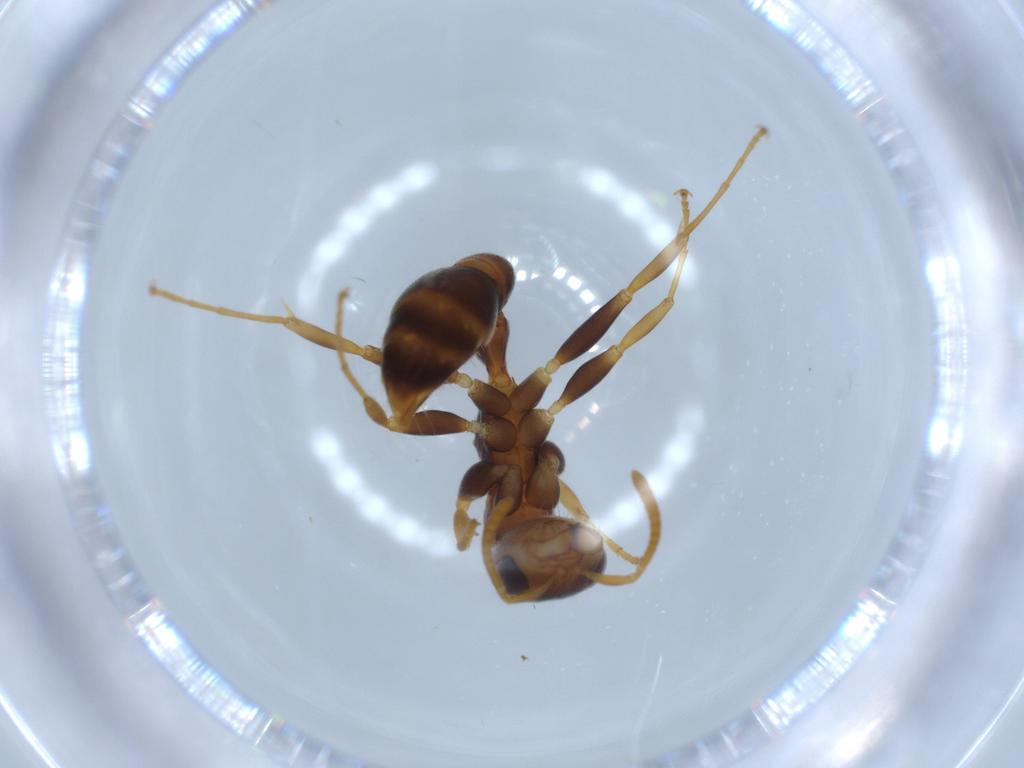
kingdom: Animalia
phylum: Arthropoda
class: Insecta
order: Hymenoptera
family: Formicidae
